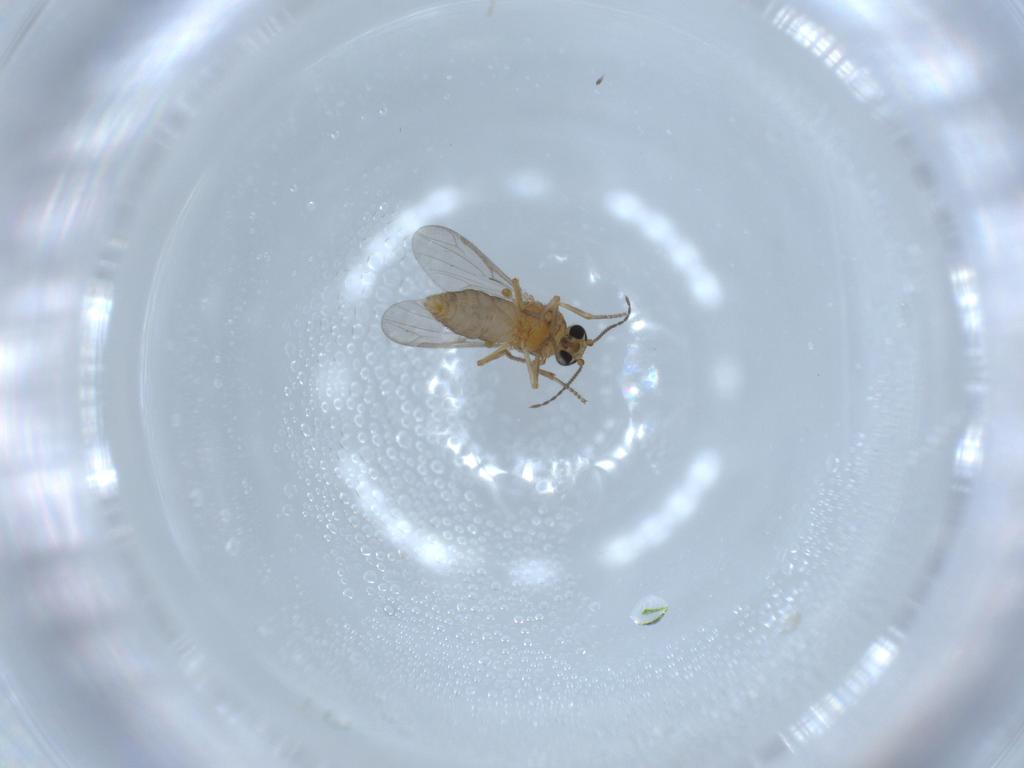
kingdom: Animalia
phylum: Arthropoda
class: Insecta
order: Diptera
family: Ceratopogonidae
